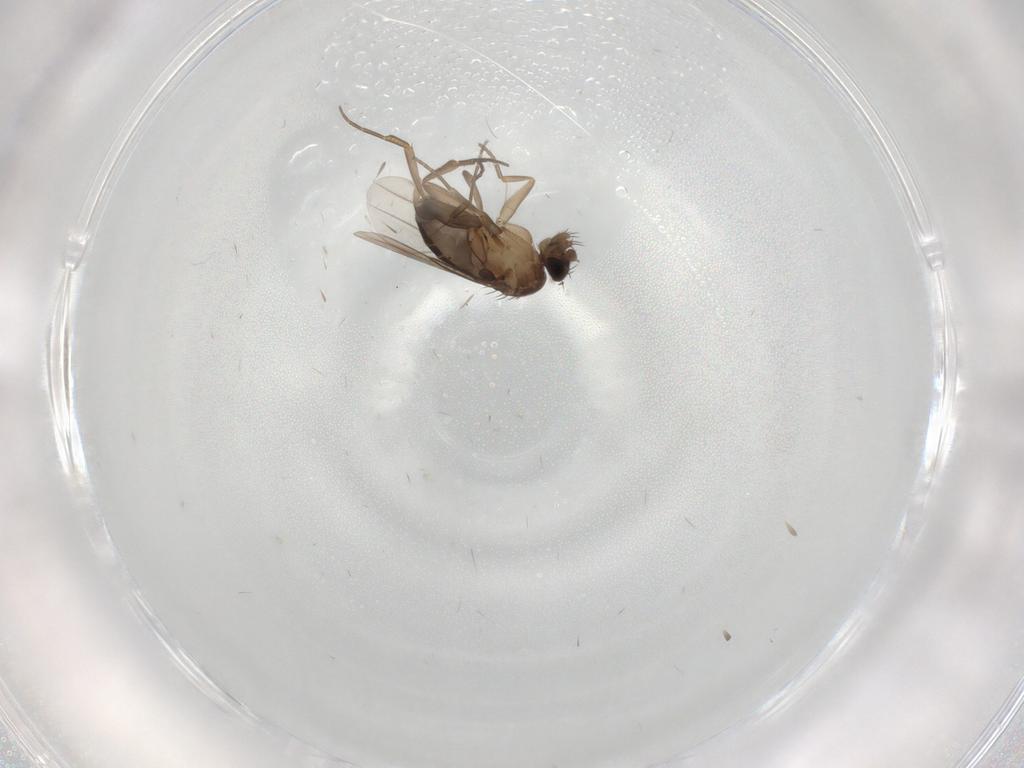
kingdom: Animalia
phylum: Arthropoda
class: Insecta
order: Diptera
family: Phoridae
